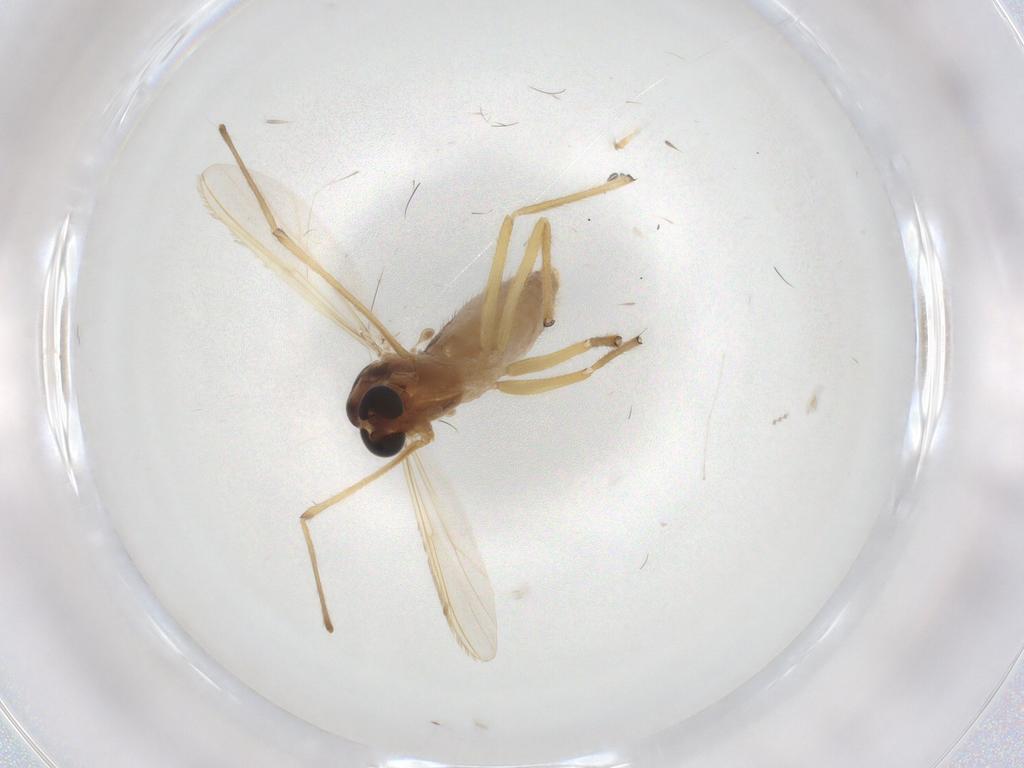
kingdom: Animalia
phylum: Arthropoda
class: Insecta
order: Diptera
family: Chironomidae
